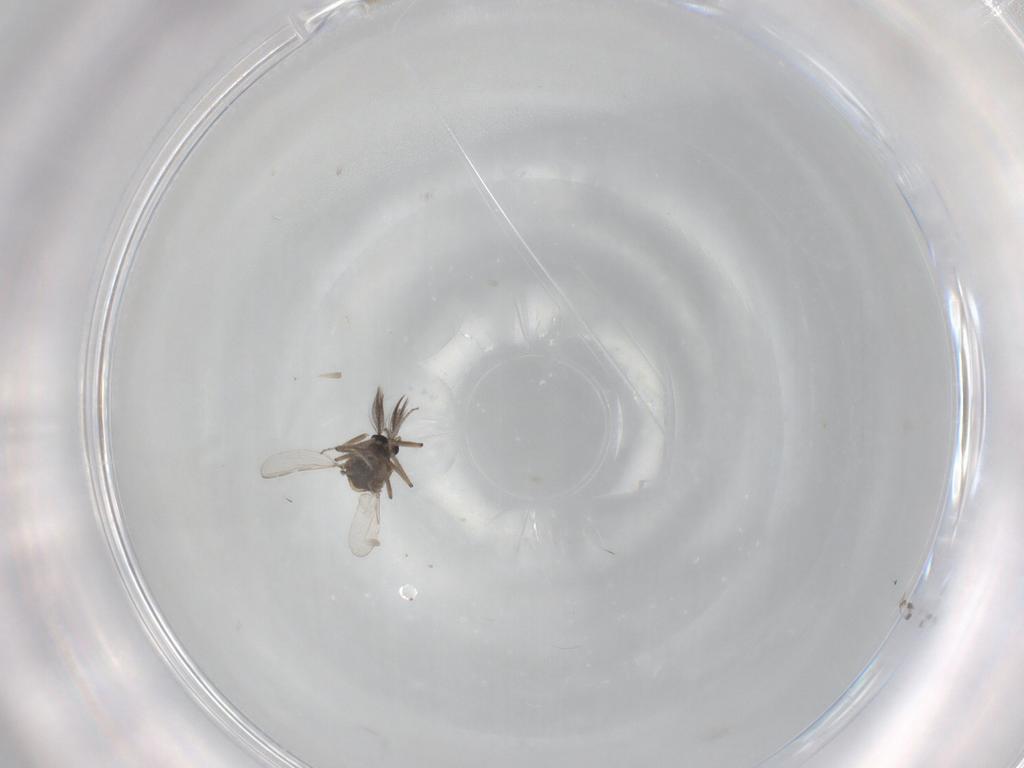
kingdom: Animalia
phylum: Arthropoda
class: Insecta
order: Diptera
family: Ceratopogonidae
